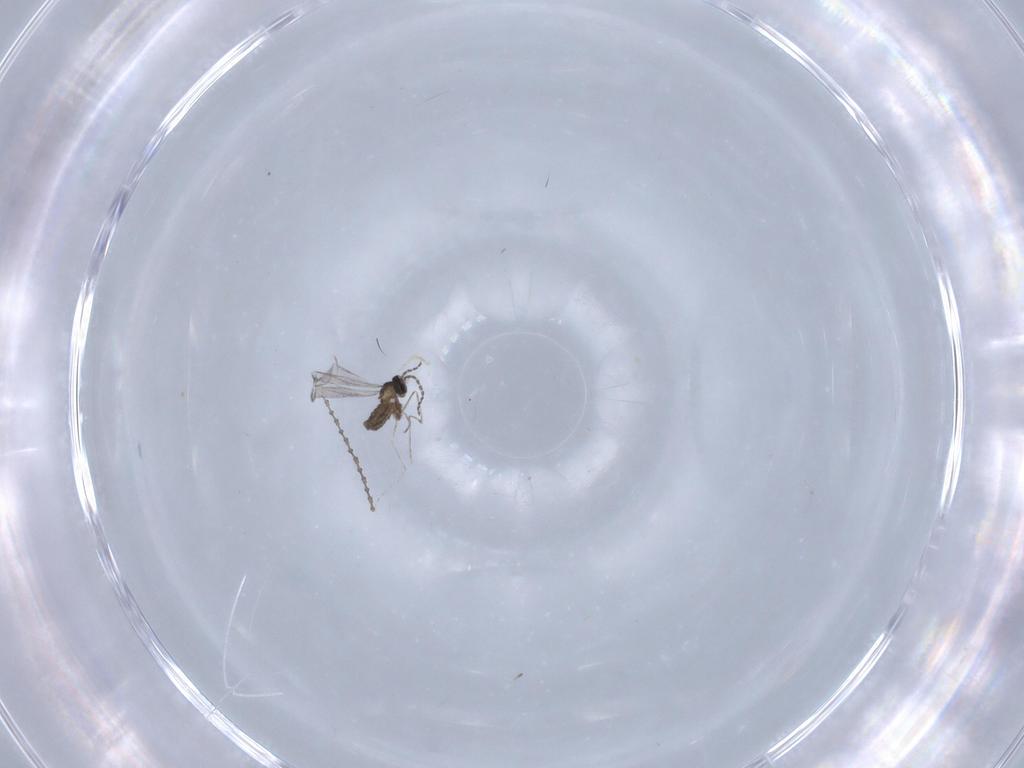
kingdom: Animalia
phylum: Arthropoda
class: Insecta
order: Diptera
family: Cecidomyiidae
